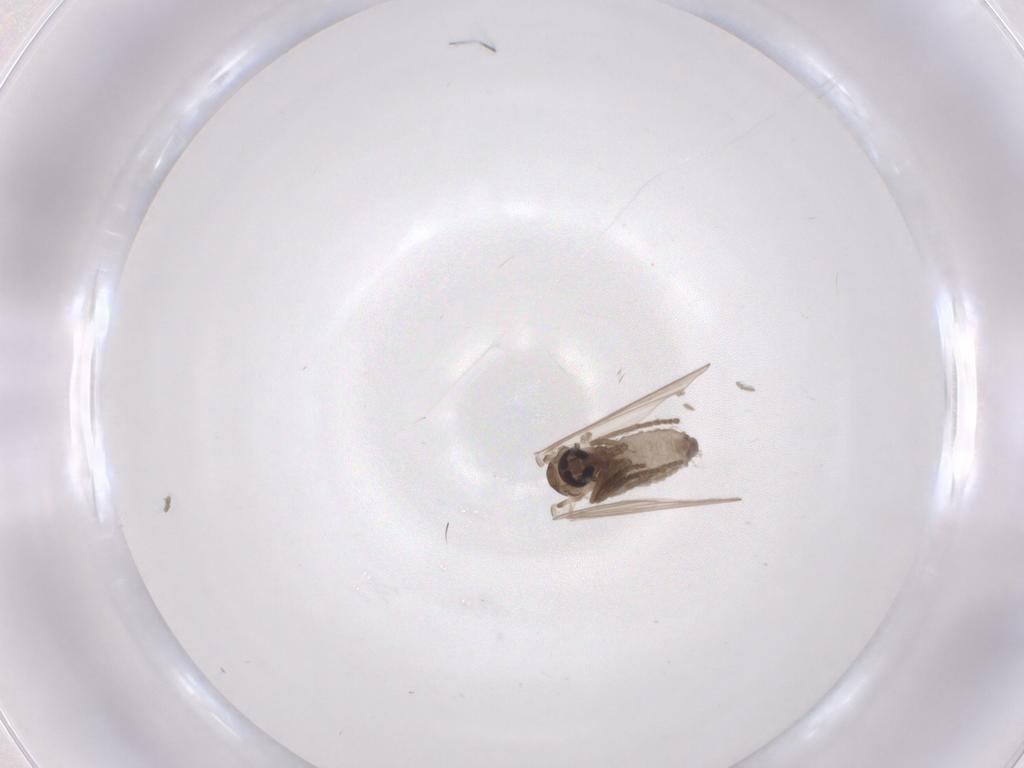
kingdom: Animalia
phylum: Arthropoda
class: Insecta
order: Diptera
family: Psychodidae
